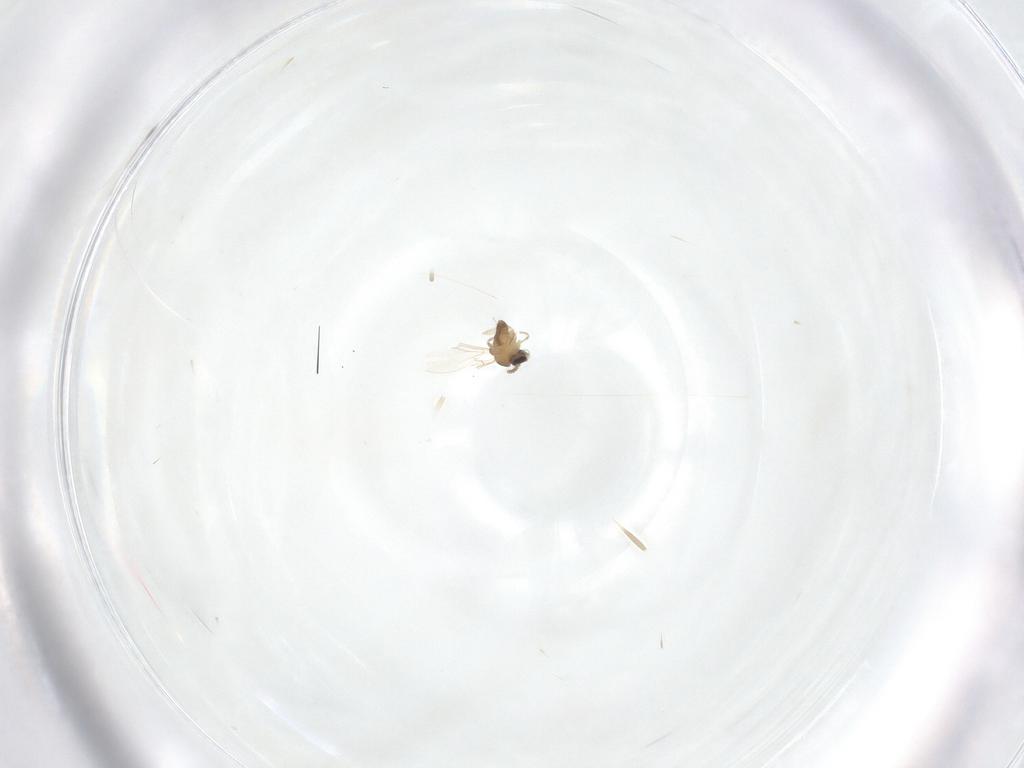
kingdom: Animalia
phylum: Arthropoda
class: Insecta
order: Diptera
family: Cecidomyiidae
